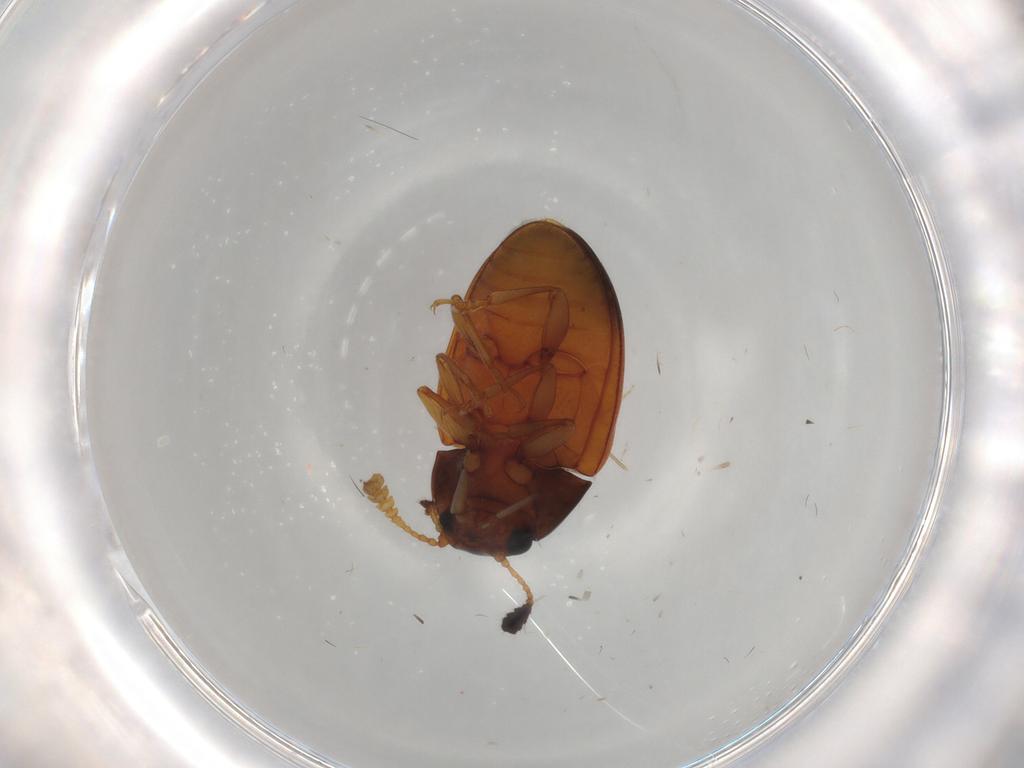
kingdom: Animalia
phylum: Arthropoda
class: Insecta
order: Coleoptera
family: Erotylidae
